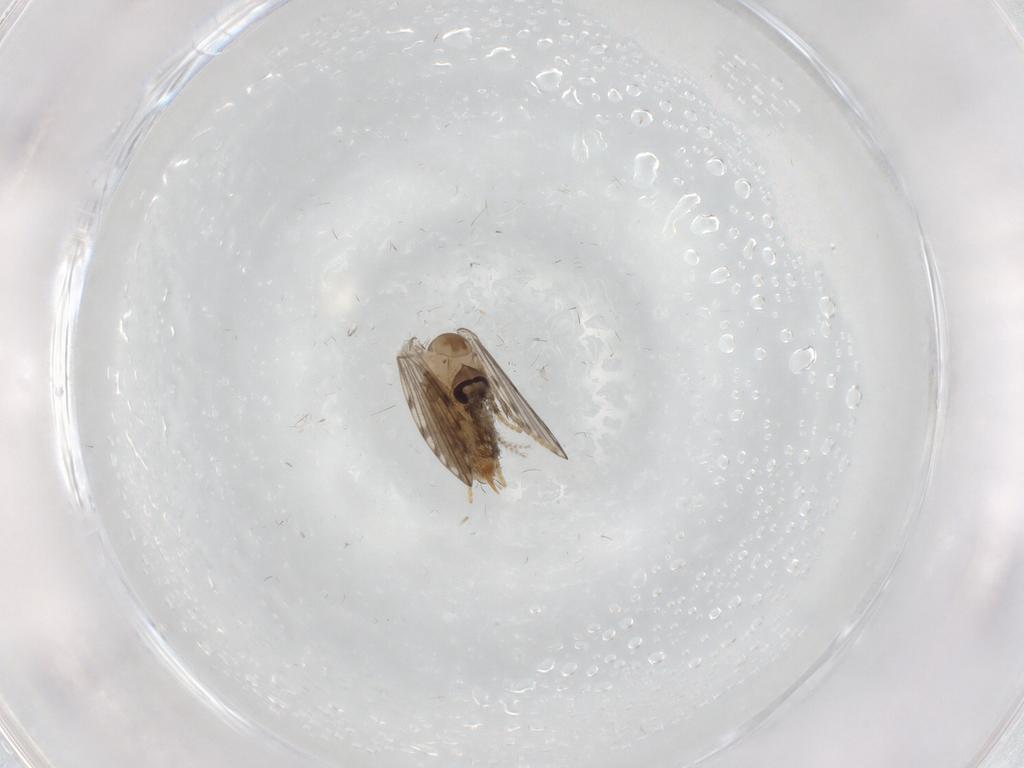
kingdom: Animalia
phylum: Arthropoda
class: Insecta
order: Diptera
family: Psychodidae
